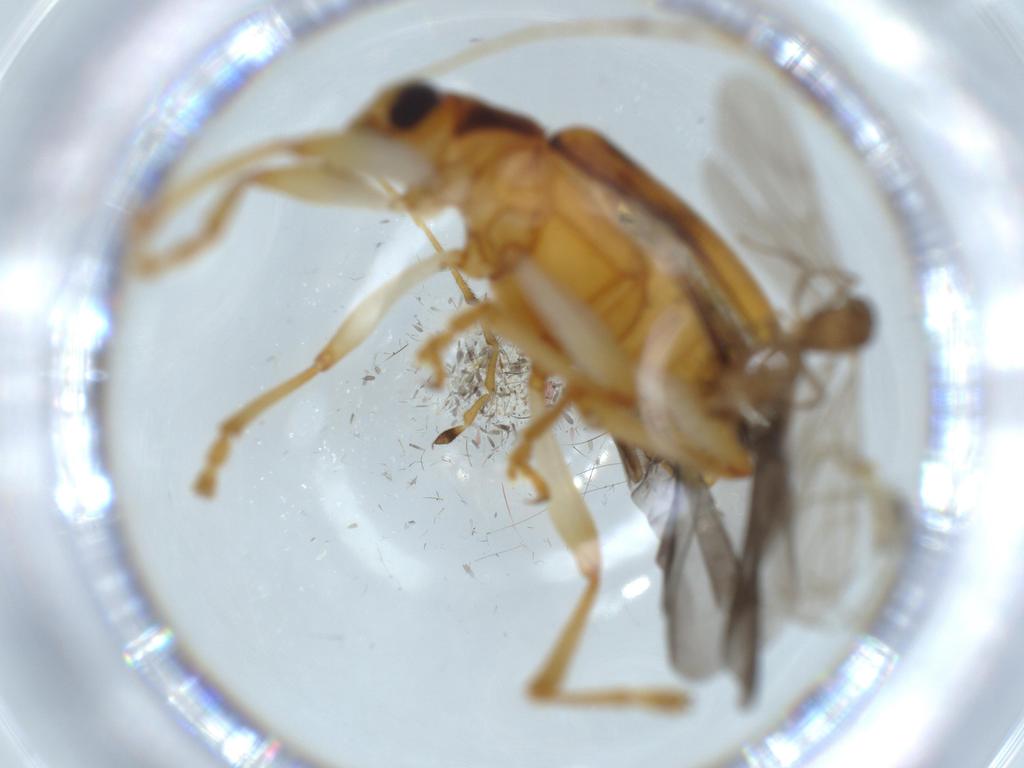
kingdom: Animalia
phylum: Arthropoda
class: Insecta
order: Coleoptera
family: Chrysomelidae
